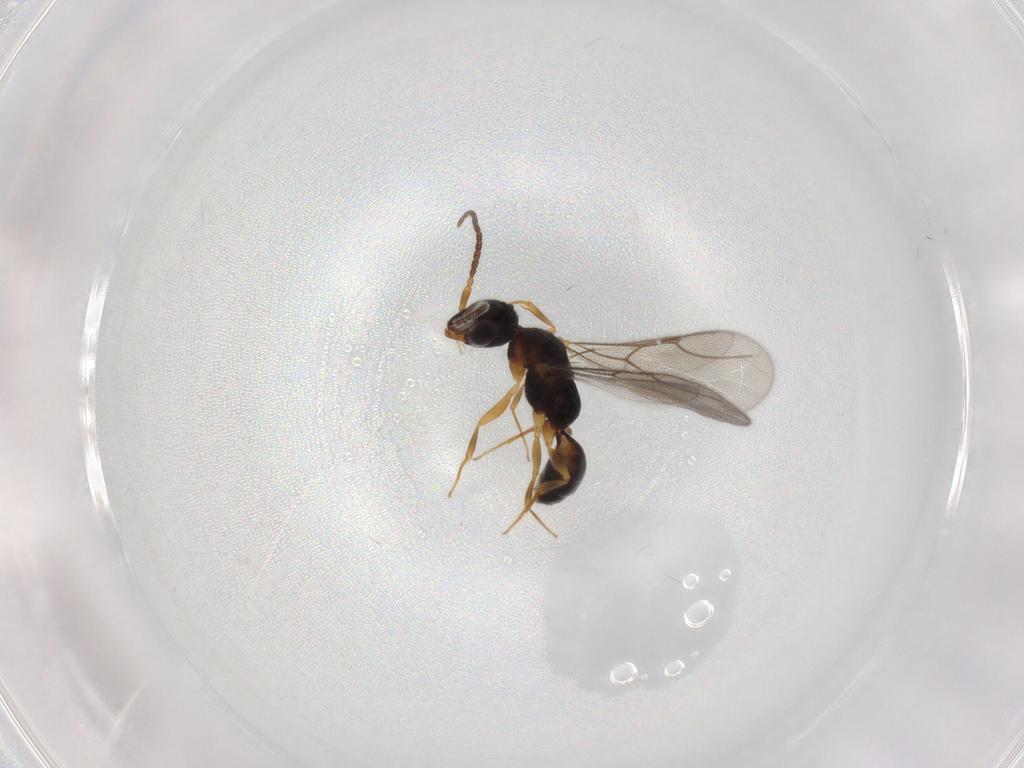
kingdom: Animalia
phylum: Arthropoda
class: Insecta
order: Hymenoptera
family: Bethylidae
